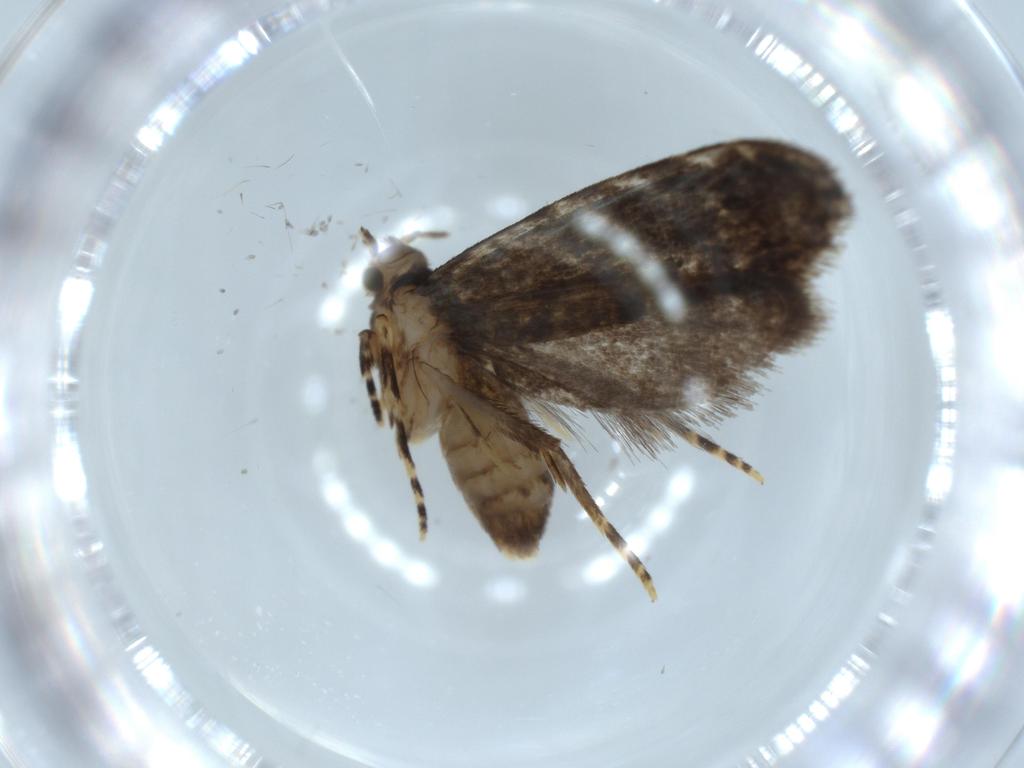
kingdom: Animalia
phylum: Arthropoda
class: Insecta
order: Lepidoptera
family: Tineidae
